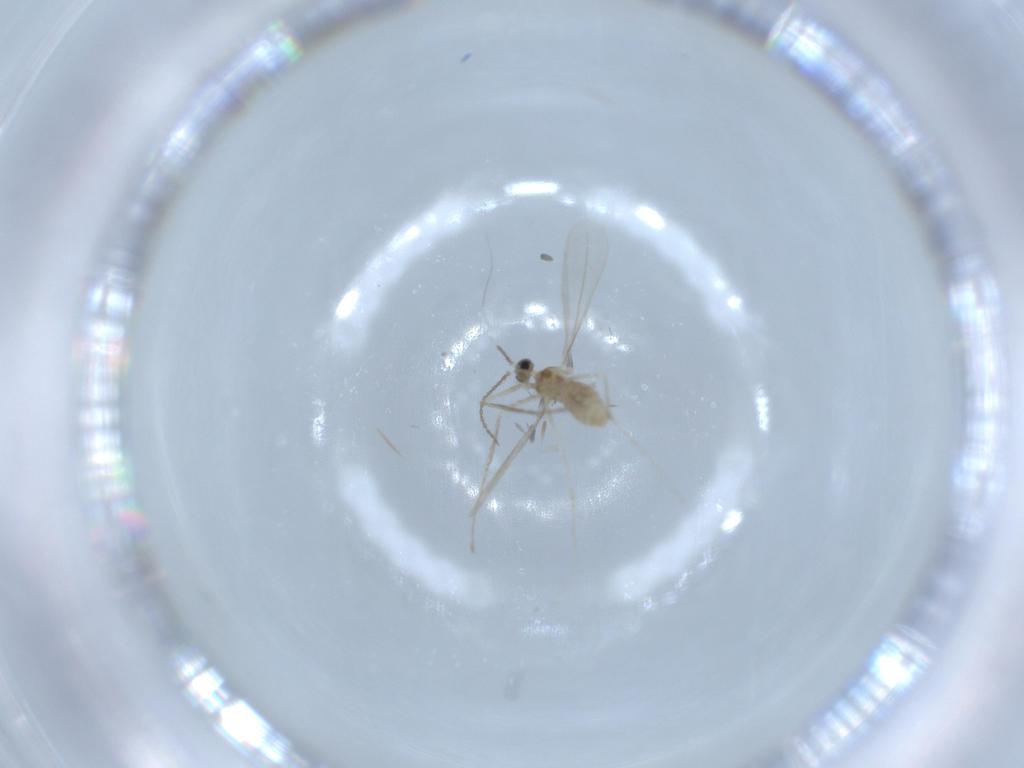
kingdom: Animalia
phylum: Arthropoda
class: Insecta
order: Diptera
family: Cecidomyiidae
